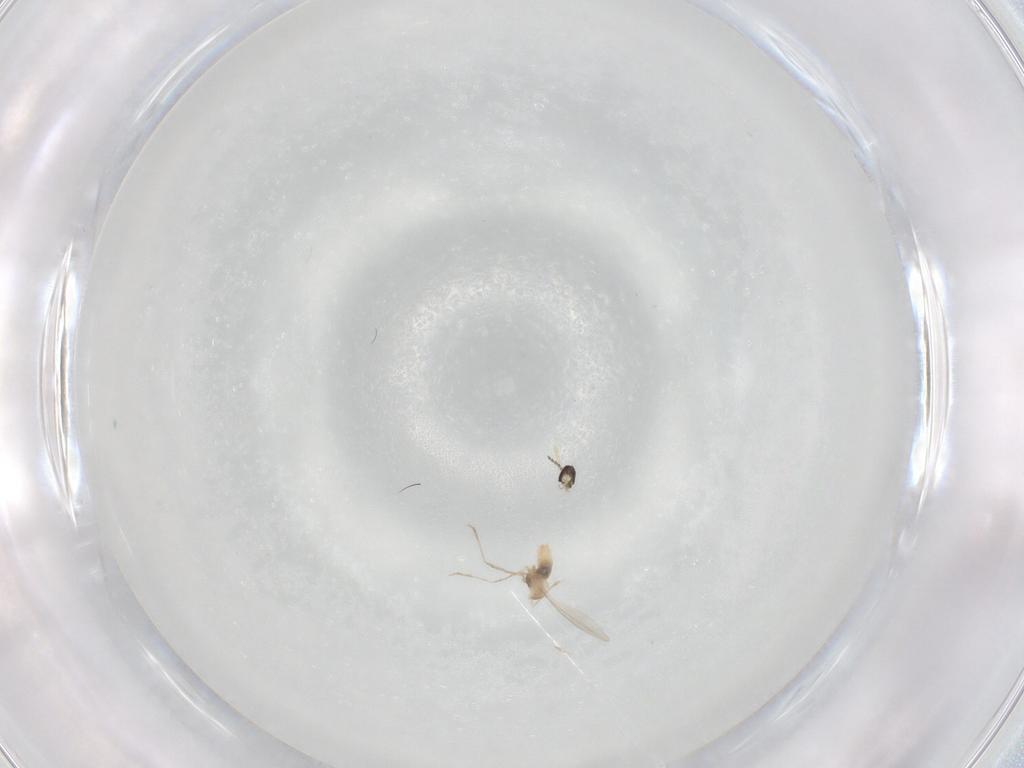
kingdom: Animalia
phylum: Arthropoda
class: Insecta
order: Diptera
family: Cecidomyiidae
